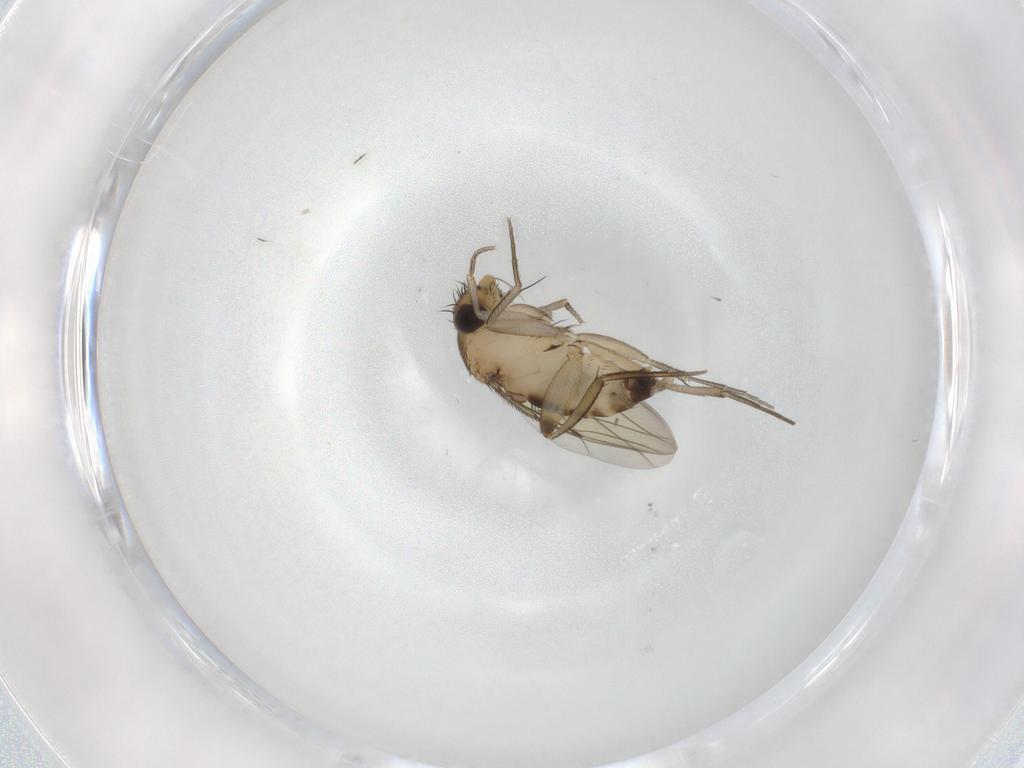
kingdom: Animalia
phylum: Arthropoda
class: Insecta
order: Diptera
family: Cecidomyiidae
